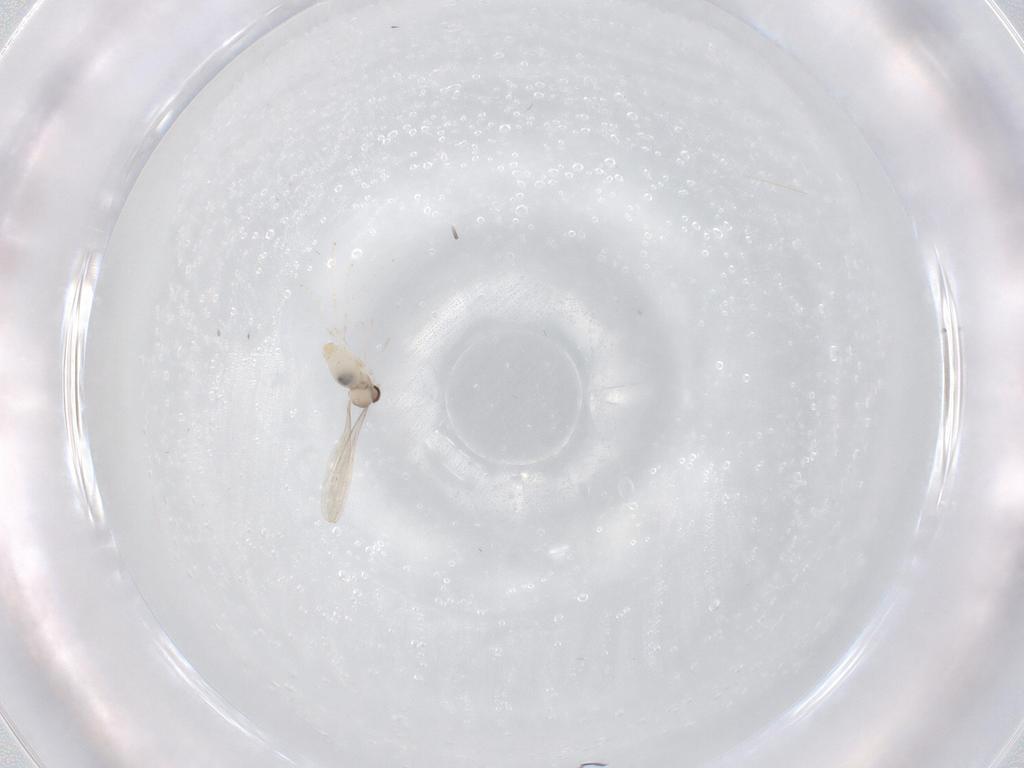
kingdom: Animalia
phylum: Arthropoda
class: Insecta
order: Diptera
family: Cecidomyiidae
